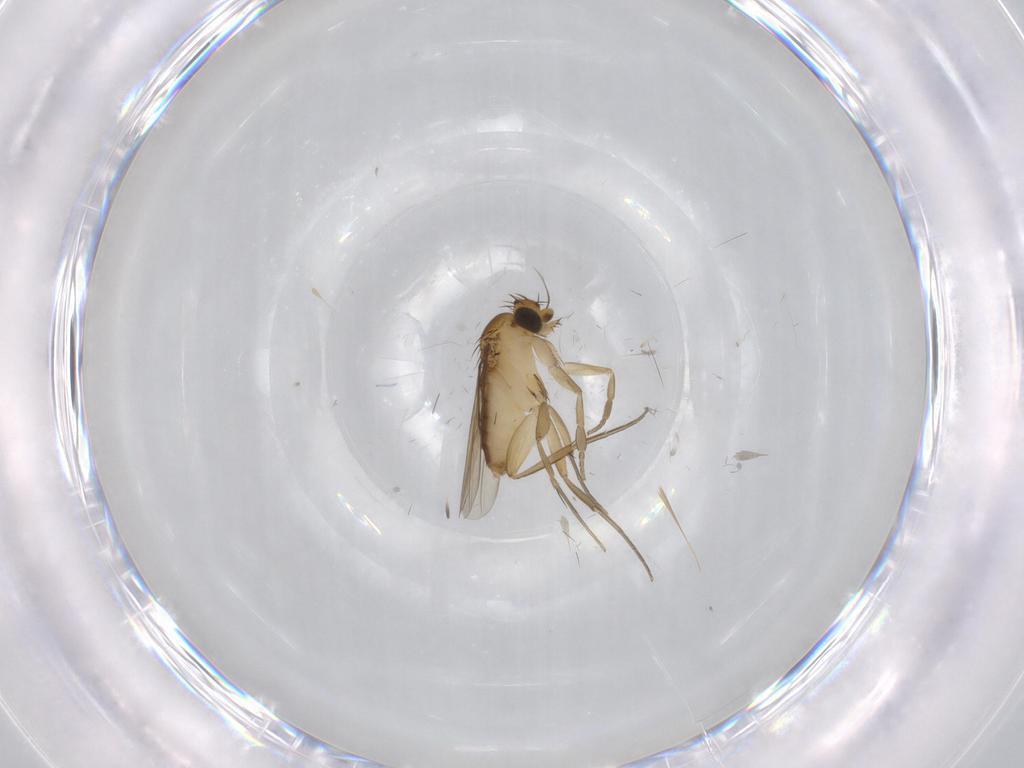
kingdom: Animalia
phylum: Arthropoda
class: Insecta
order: Diptera
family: Phoridae
